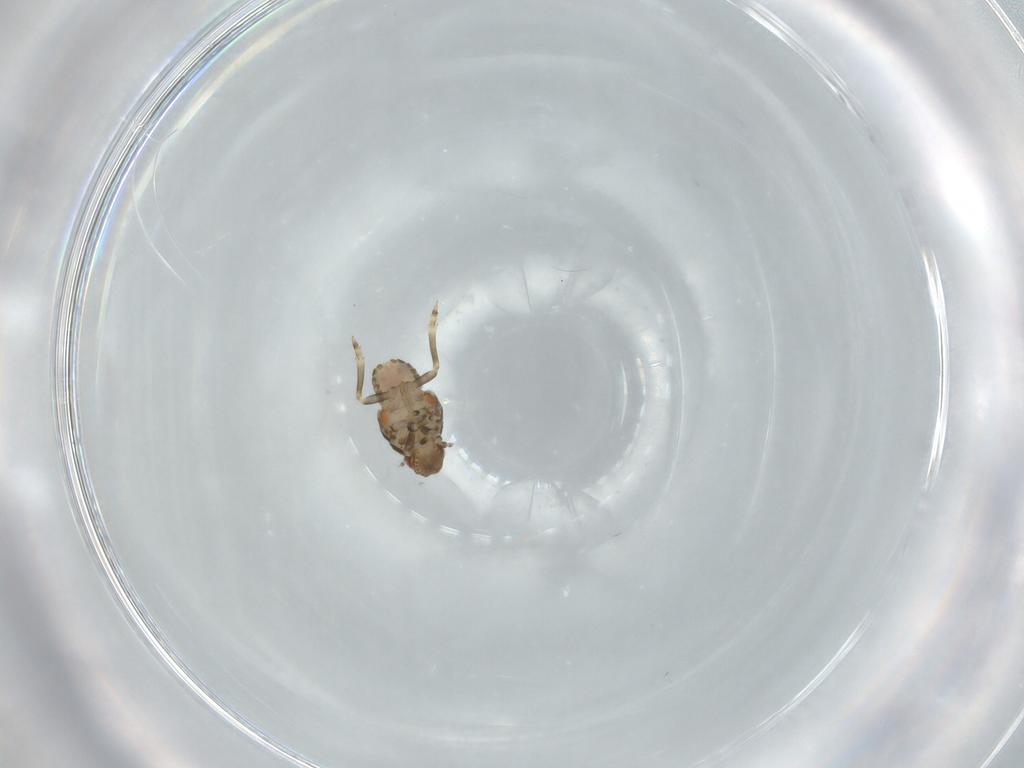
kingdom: Animalia
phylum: Arthropoda
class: Insecta
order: Hemiptera
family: Flatidae
